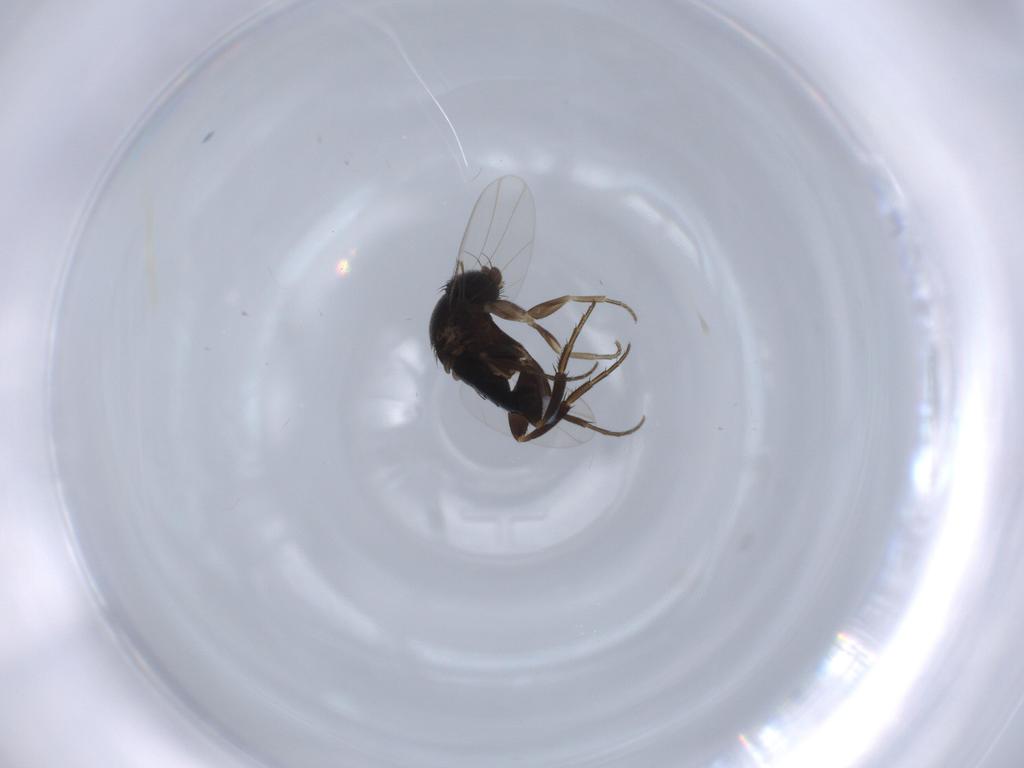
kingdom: Animalia
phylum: Arthropoda
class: Insecta
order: Diptera
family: Phoridae
